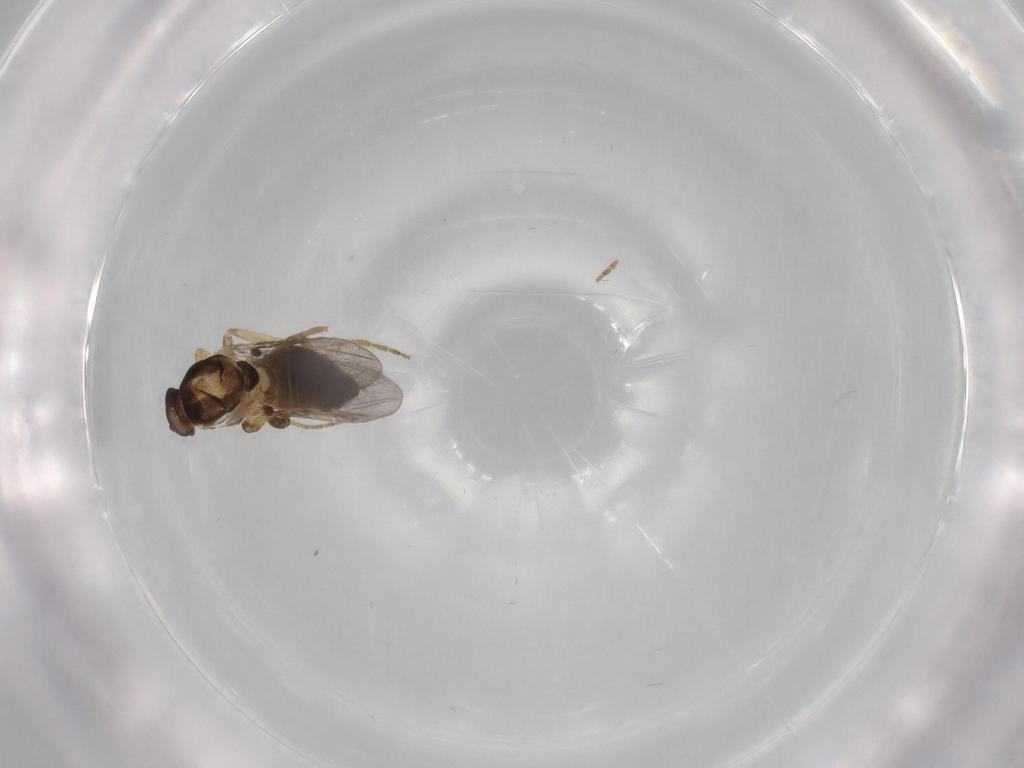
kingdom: Animalia
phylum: Arthropoda
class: Insecta
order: Diptera
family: Ceratopogonidae
